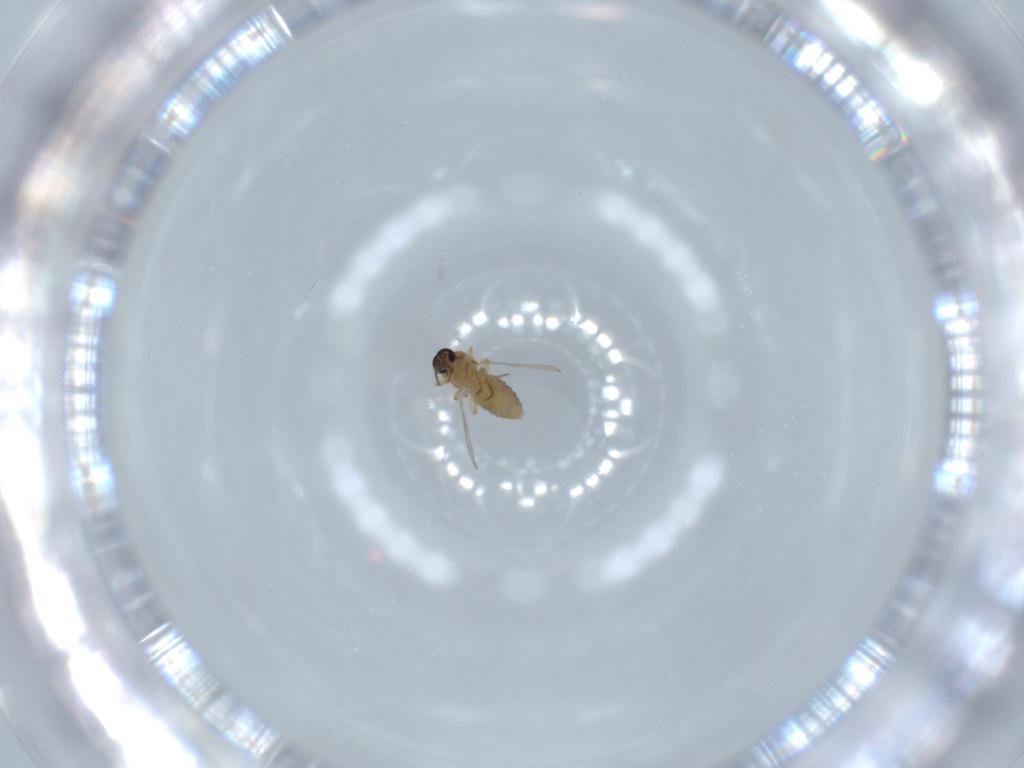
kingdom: Animalia
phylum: Arthropoda
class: Insecta
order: Diptera
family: Ceratopogonidae
